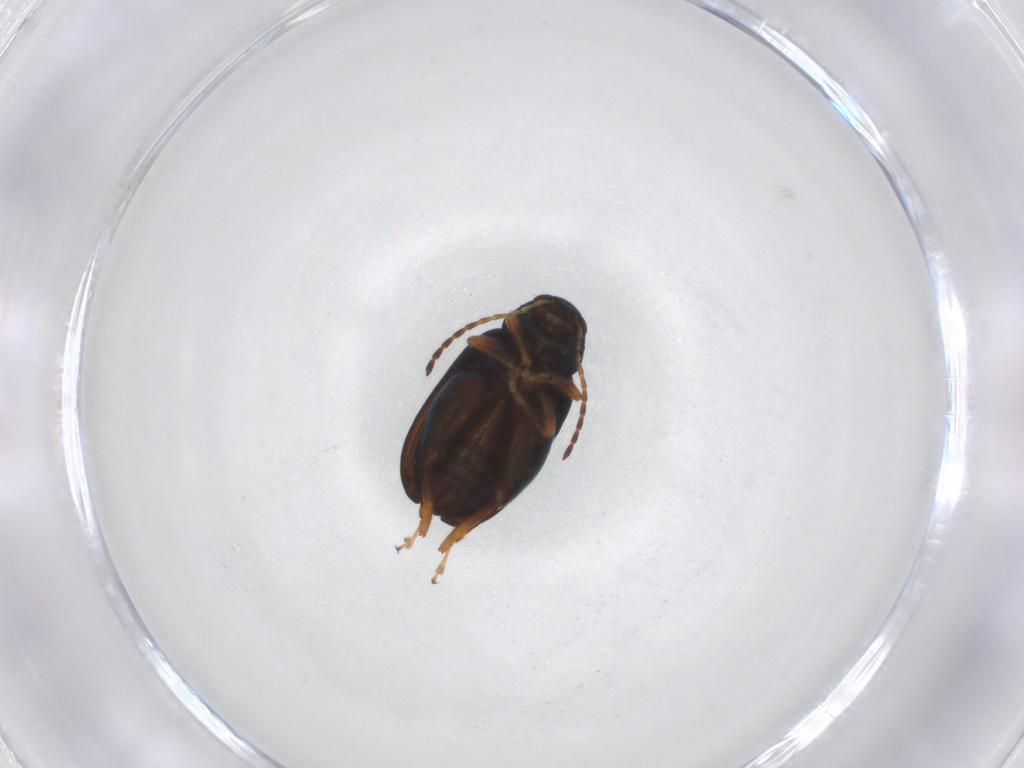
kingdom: Animalia
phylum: Arthropoda
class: Insecta
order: Coleoptera
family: Chrysomelidae
